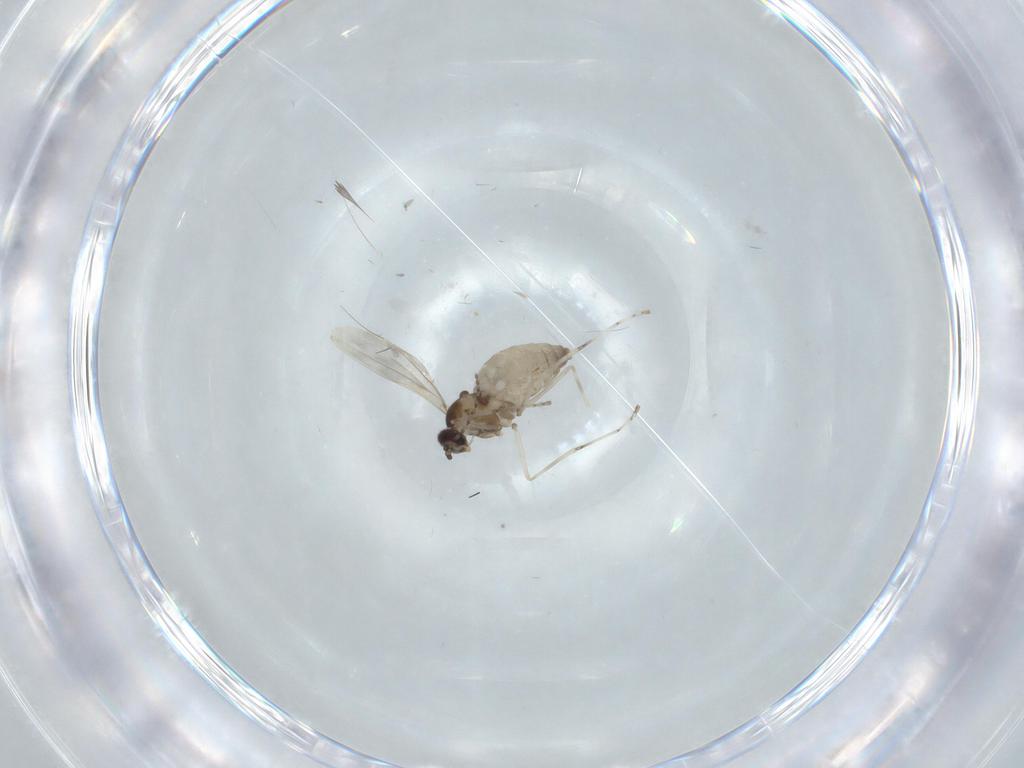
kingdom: Animalia
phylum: Arthropoda
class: Insecta
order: Diptera
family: Cecidomyiidae
